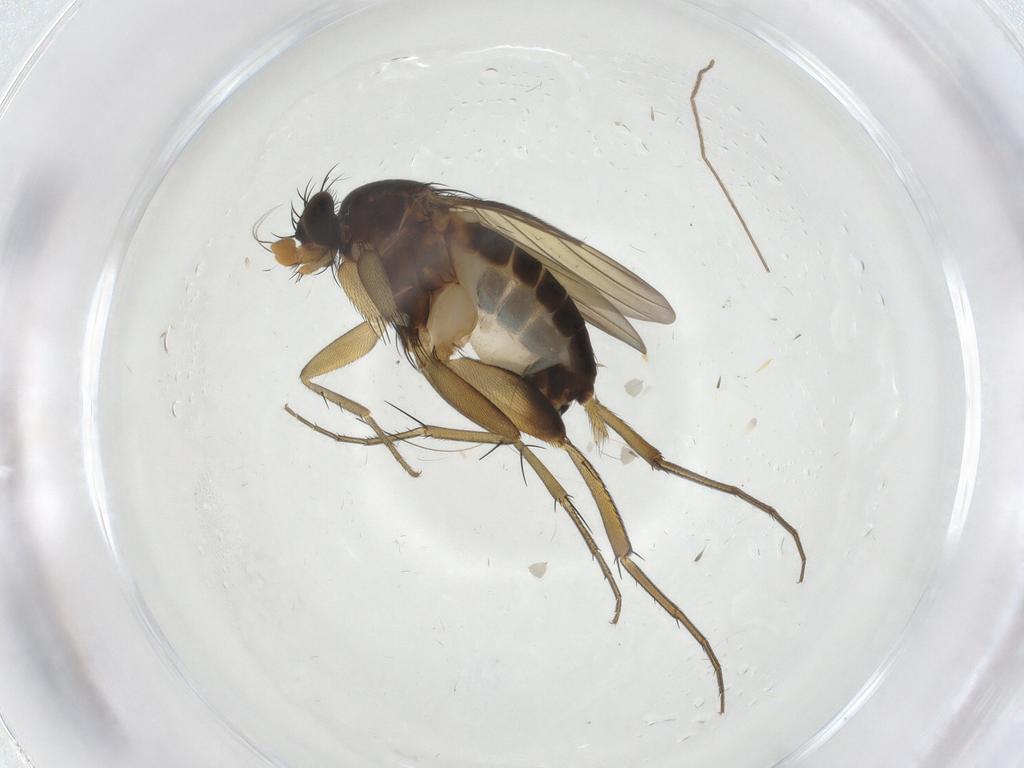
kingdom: Animalia
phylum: Arthropoda
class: Insecta
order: Diptera
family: Phoridae
